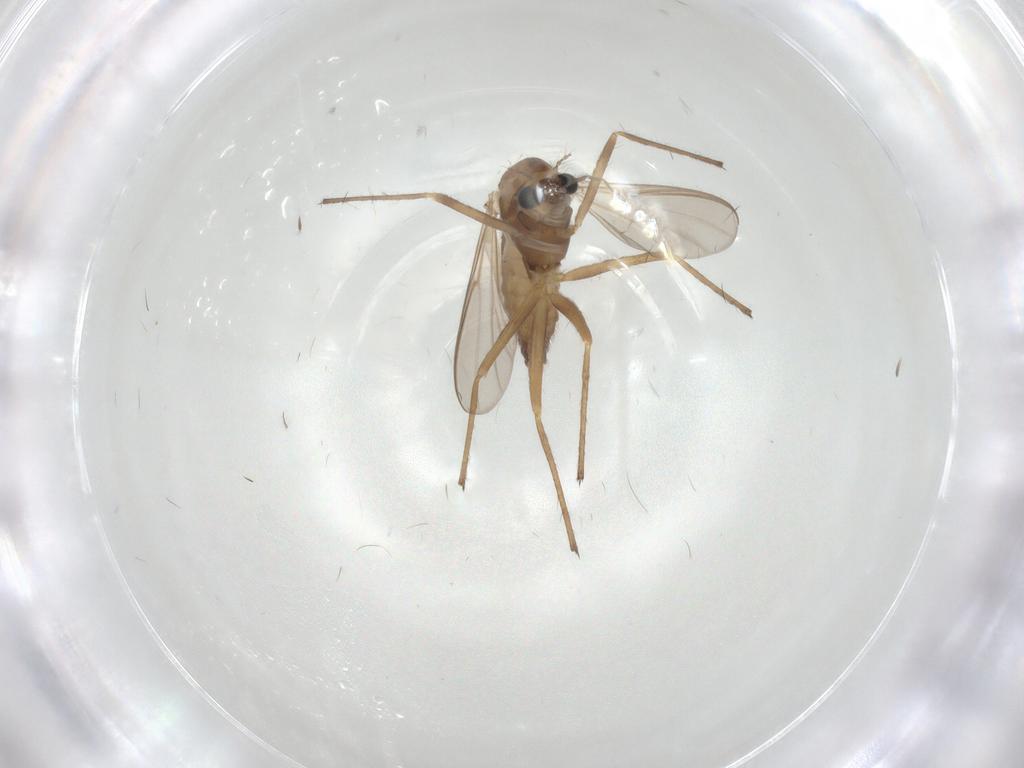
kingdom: Animalia
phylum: Arthropoda
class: Insecta
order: Diptera
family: Chironomidae
